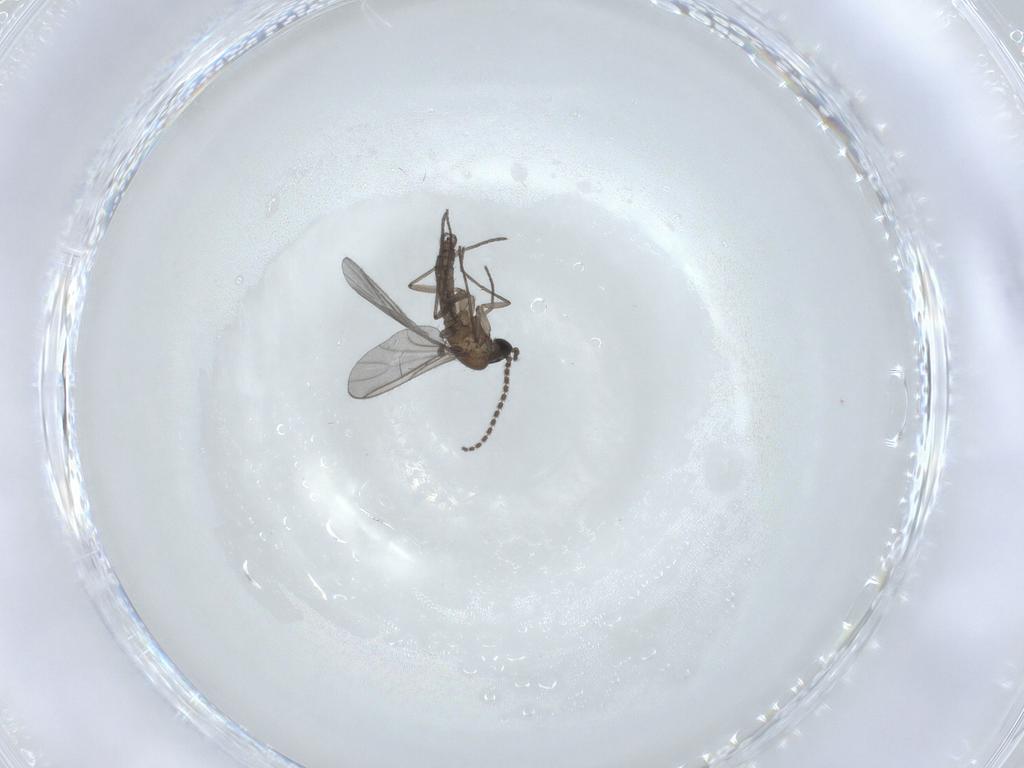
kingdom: Animalia
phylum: Arthropoda
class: Insecta
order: Diptera
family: Sciaridae
